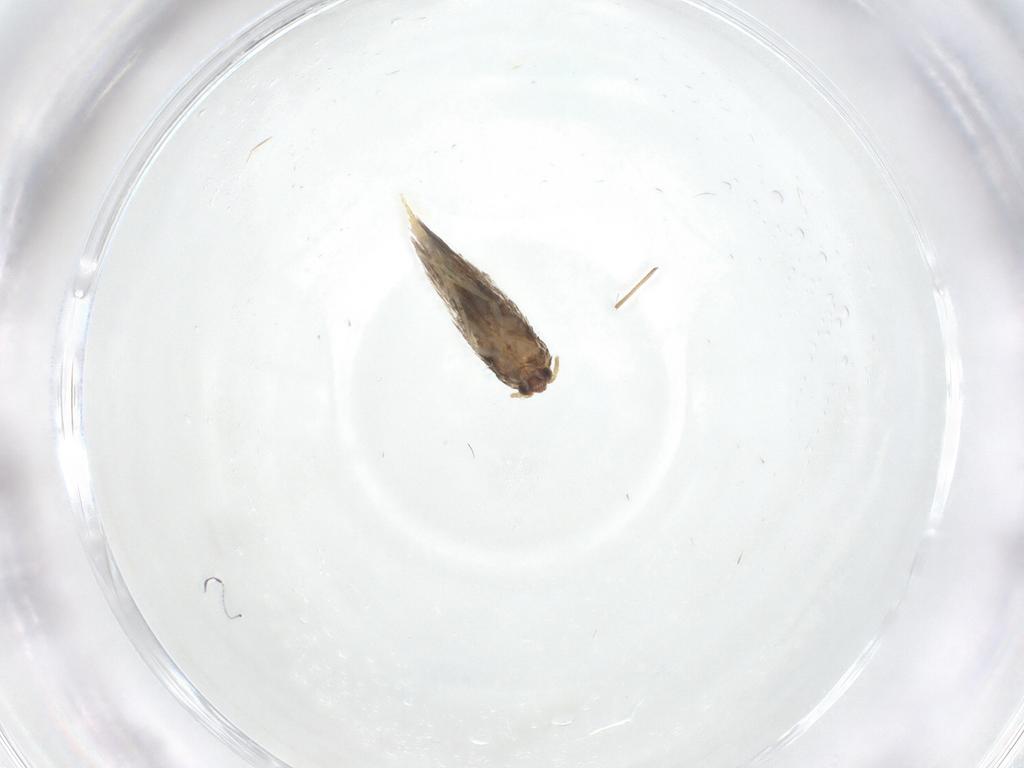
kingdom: Animalia
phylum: Arthropoda
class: Insecta
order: Lepidoptera
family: Nepticulidae
